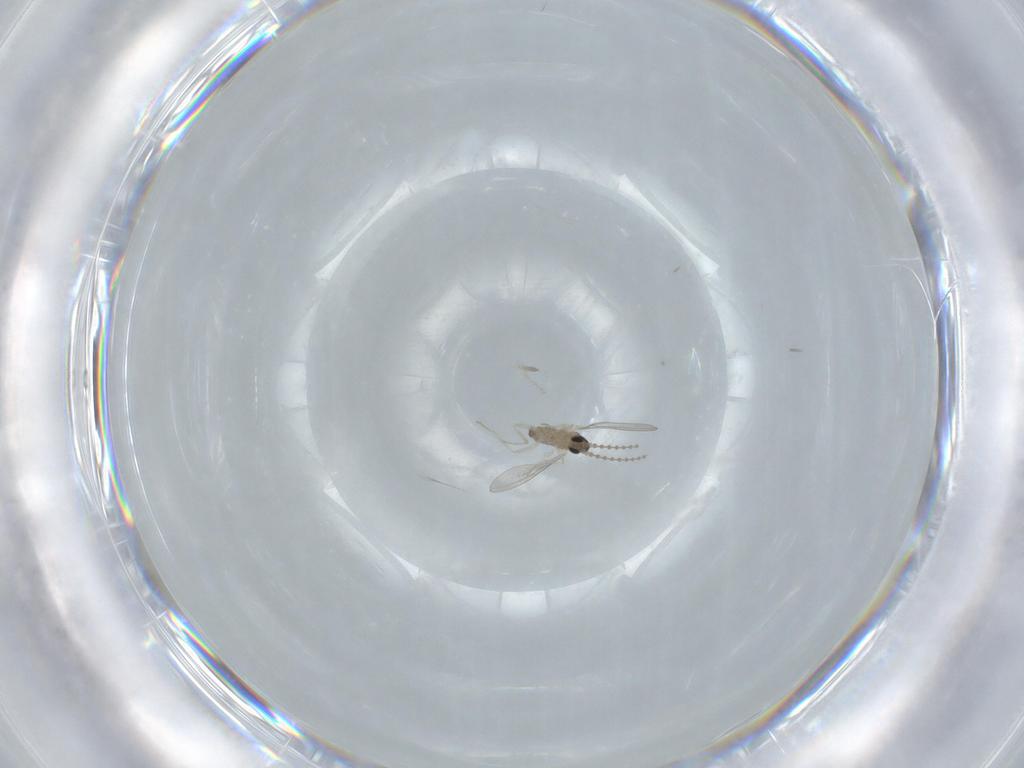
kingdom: Animalia
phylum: Arthropoda
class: Insecta
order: Diptera
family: Cecidomyiidae
